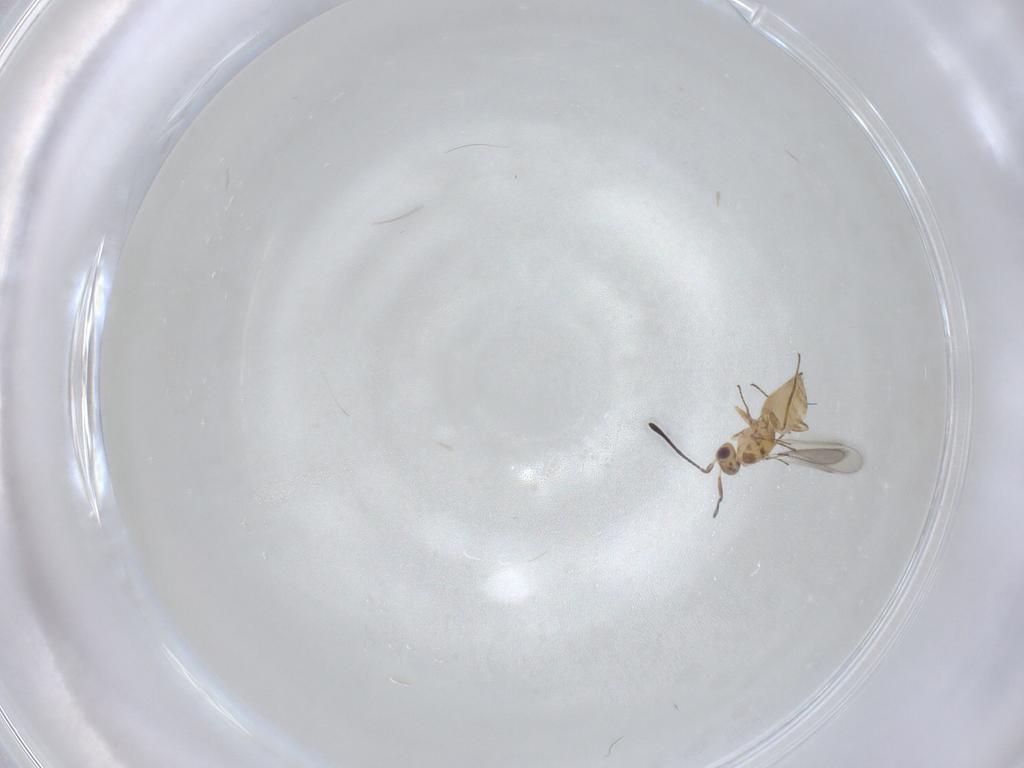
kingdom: Animalia
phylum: Arthropoda
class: Insecta
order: Hymenoptera
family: Mymaridae
